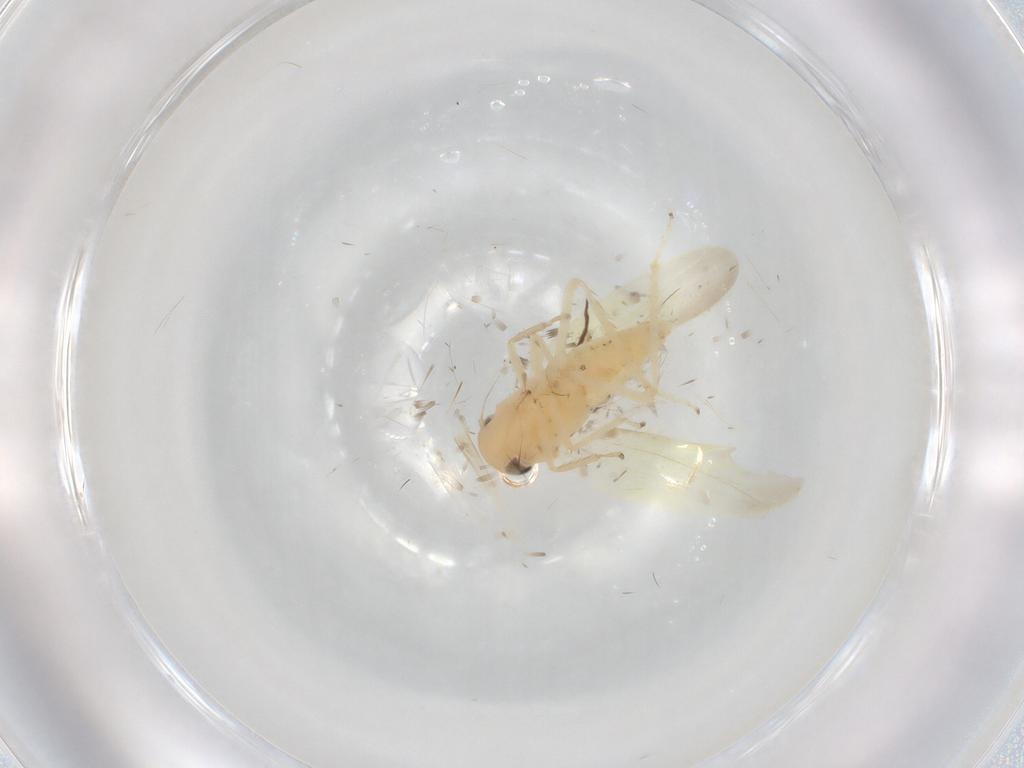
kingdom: Animalia
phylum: Arthropoda
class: Insecta
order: Hemiptera
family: Cicadellidae
